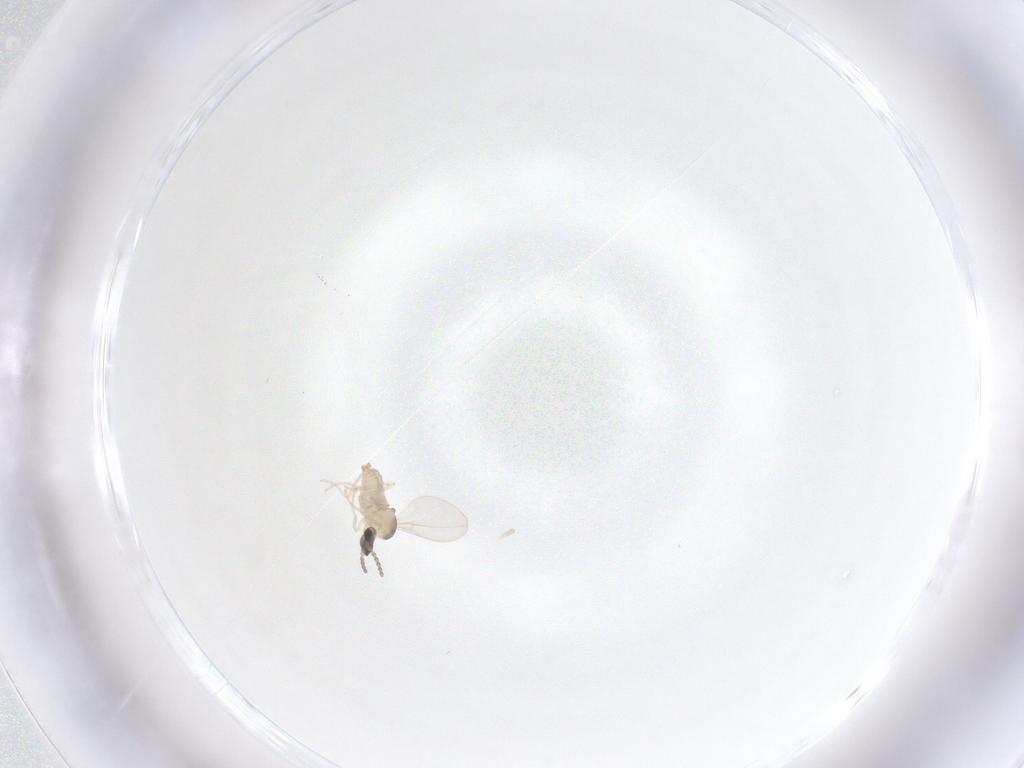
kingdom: Animalia
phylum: Arthropoda
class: Insecta
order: Diptera
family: Cecidomyiidae
